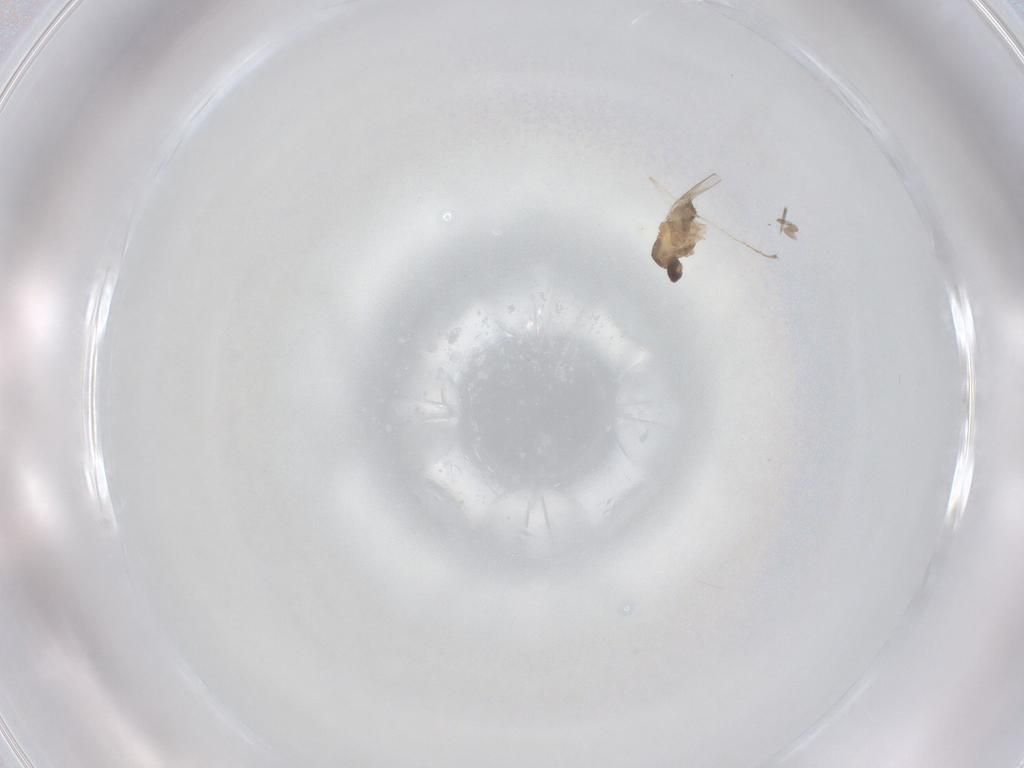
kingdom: Animalia
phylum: Arthropoda
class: Insecta
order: Diptera
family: Cecidomyiidae
